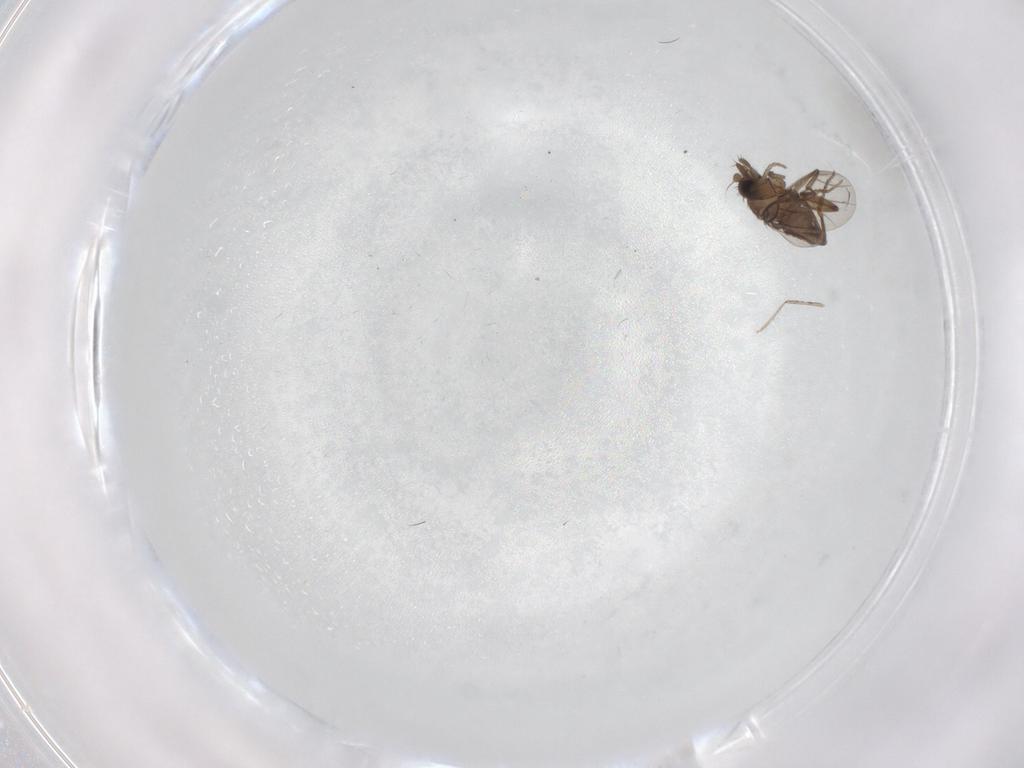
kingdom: Animalia
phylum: Arthropoda
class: Insecta
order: Diptera
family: Phoridae
